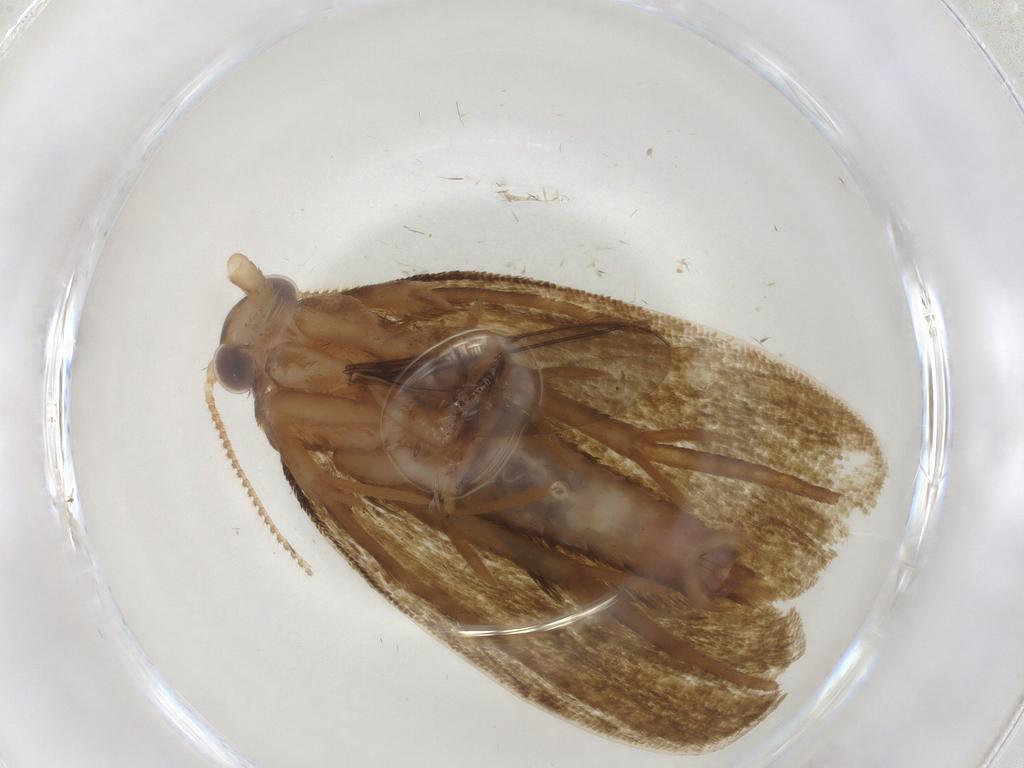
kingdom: Animalia
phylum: Arthropoda
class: Insecta
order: Lepidoptera
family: Geometridae
